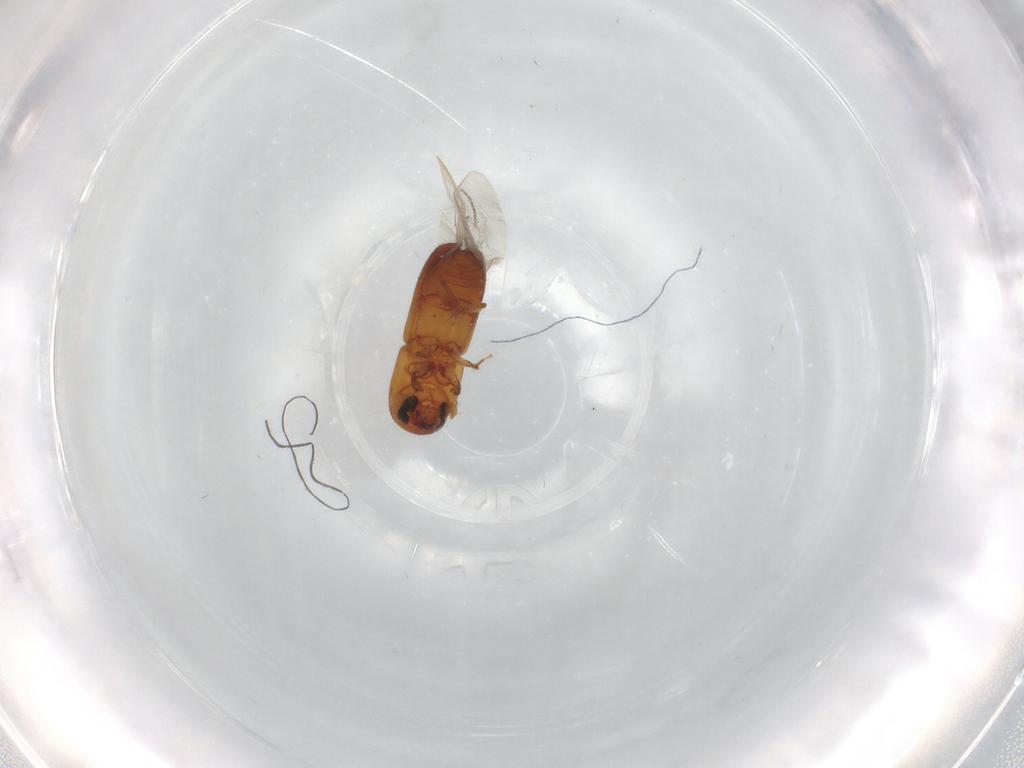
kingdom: Animalia
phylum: Arthropoda
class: Insecta
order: Coleoptera
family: Curculionidae
